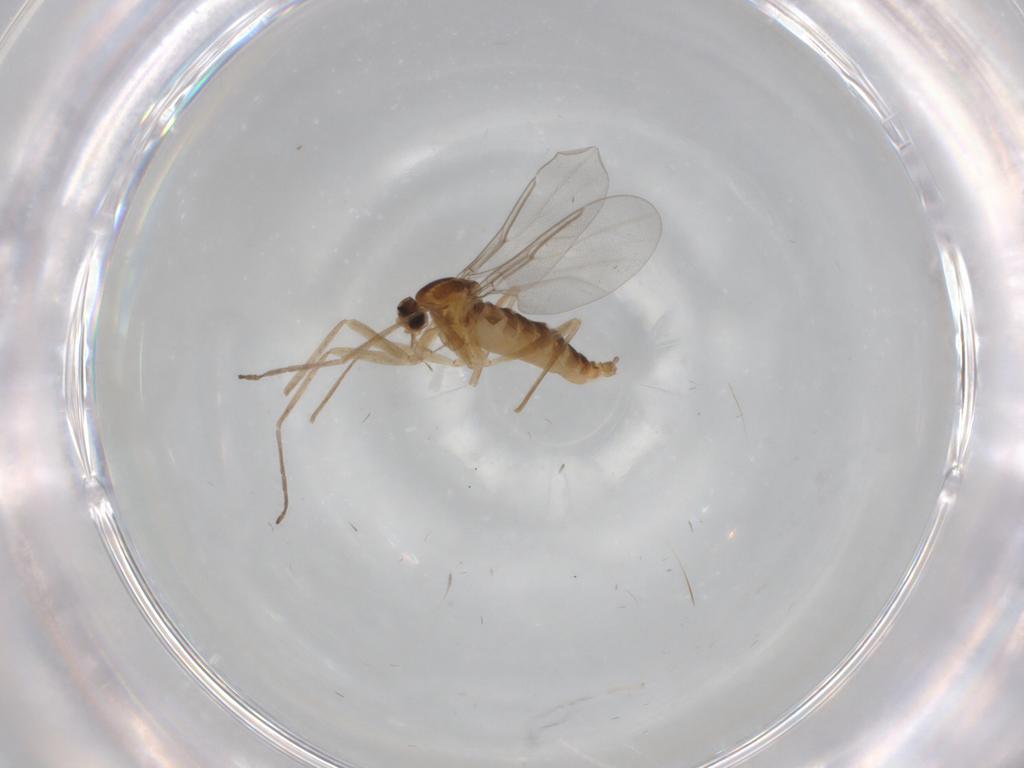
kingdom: Animalia
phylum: Arthropoda
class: Insecta
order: Diptera
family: Cecidomyiidae
